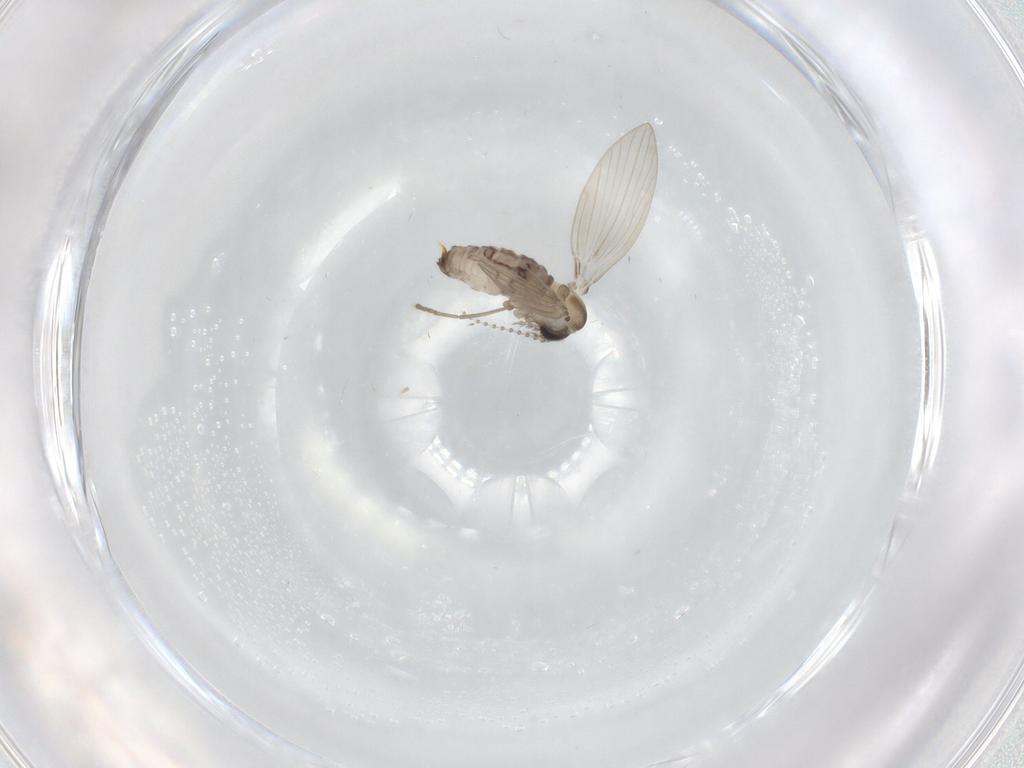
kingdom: Animalia
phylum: Arthropoda
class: Insecta
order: Diptera
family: Psychodidae
